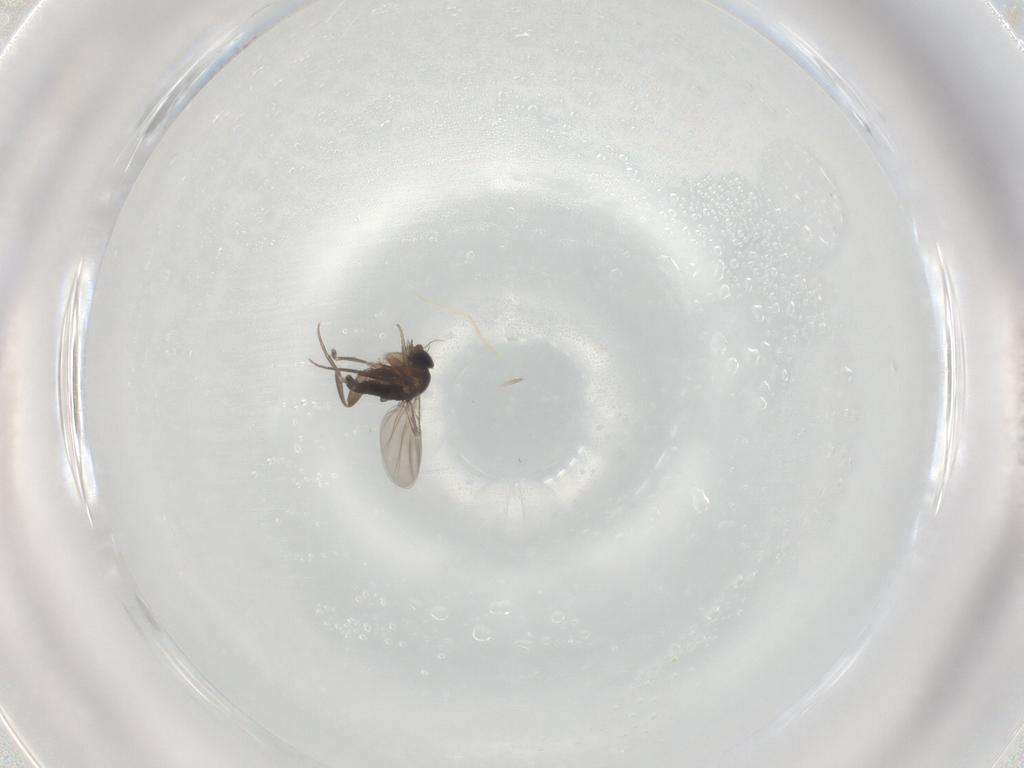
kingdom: Animalia
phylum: Arthropoda
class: Insecta
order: Diptera
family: Phoridae
